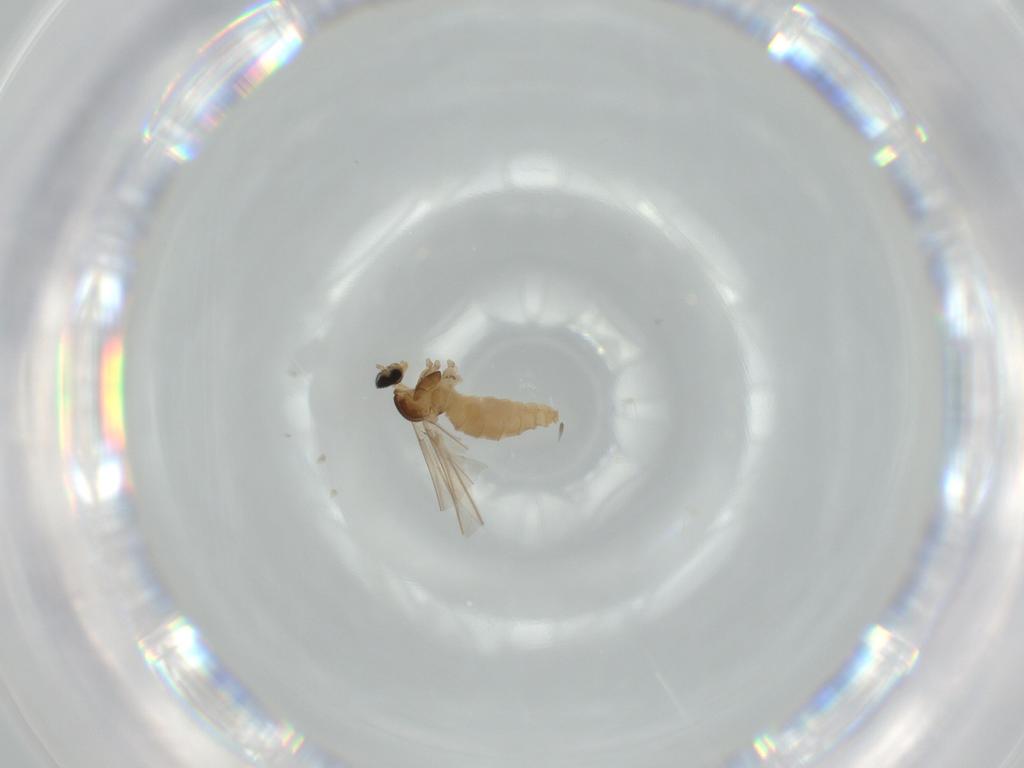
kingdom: Animalia
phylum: Arthropoda
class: Insecta
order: Diptera
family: Cecidomyiidae
